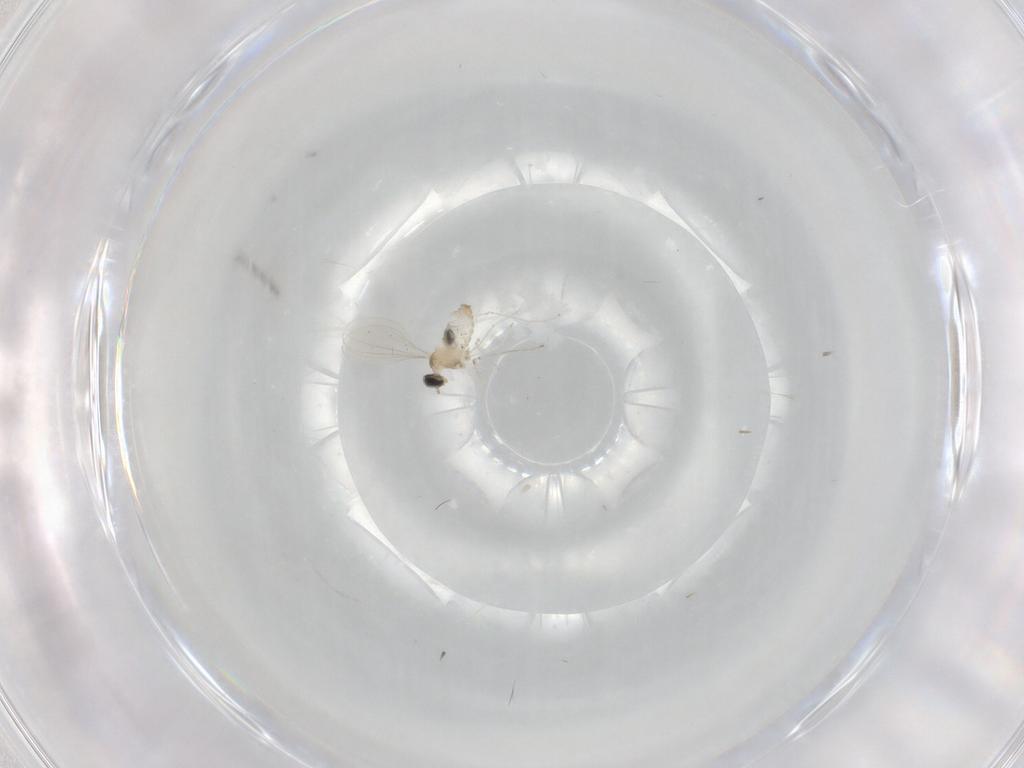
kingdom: Animalia
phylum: Arthropoda
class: Insecta
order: Diptera
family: Cecidomyiidae
